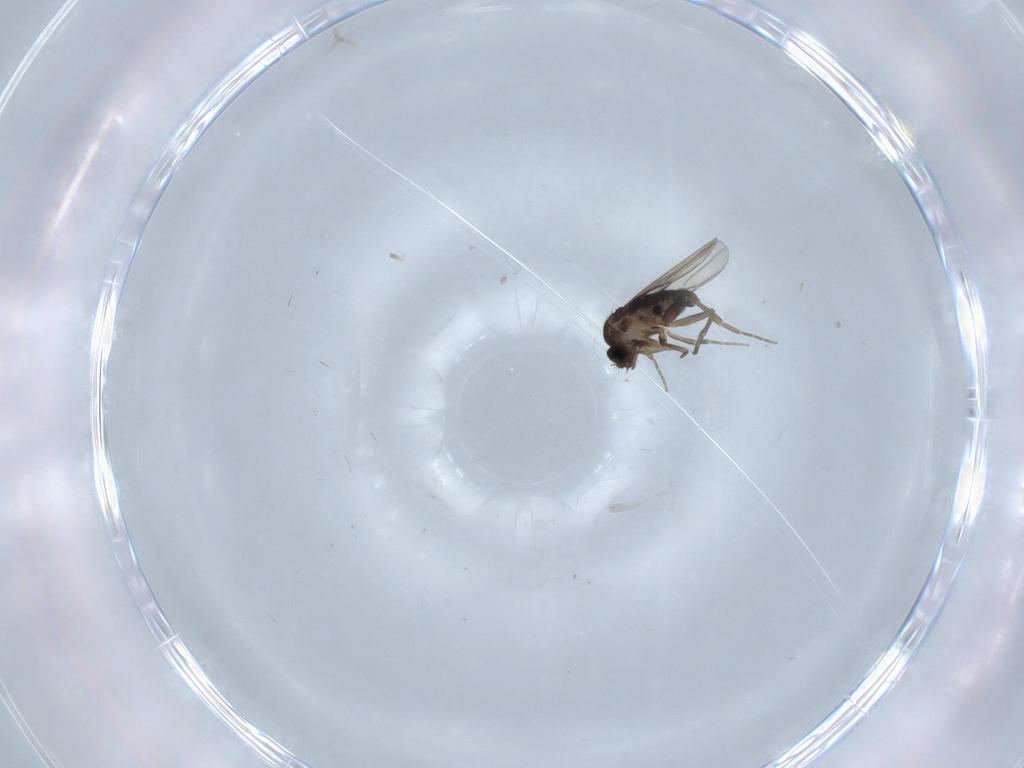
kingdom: Animalia
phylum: Arthropoda
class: Insecta
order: Diptera
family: Phoridae
